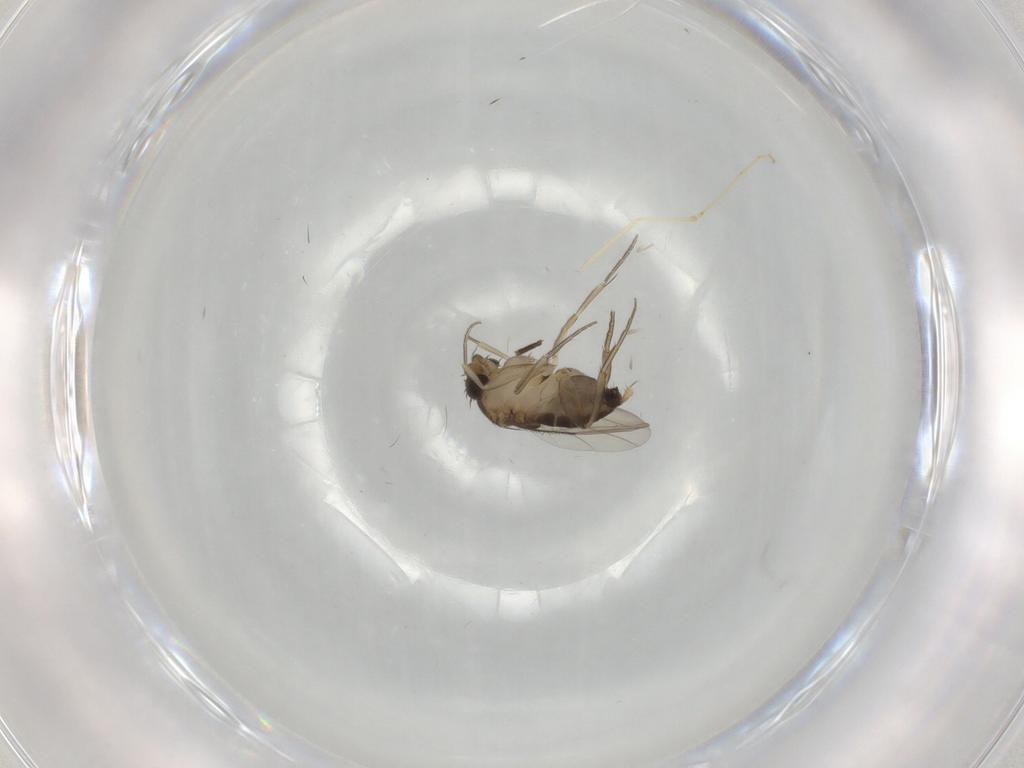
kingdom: Animalia
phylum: Arthropoda
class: Insecta
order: Diptera
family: Phoridae
